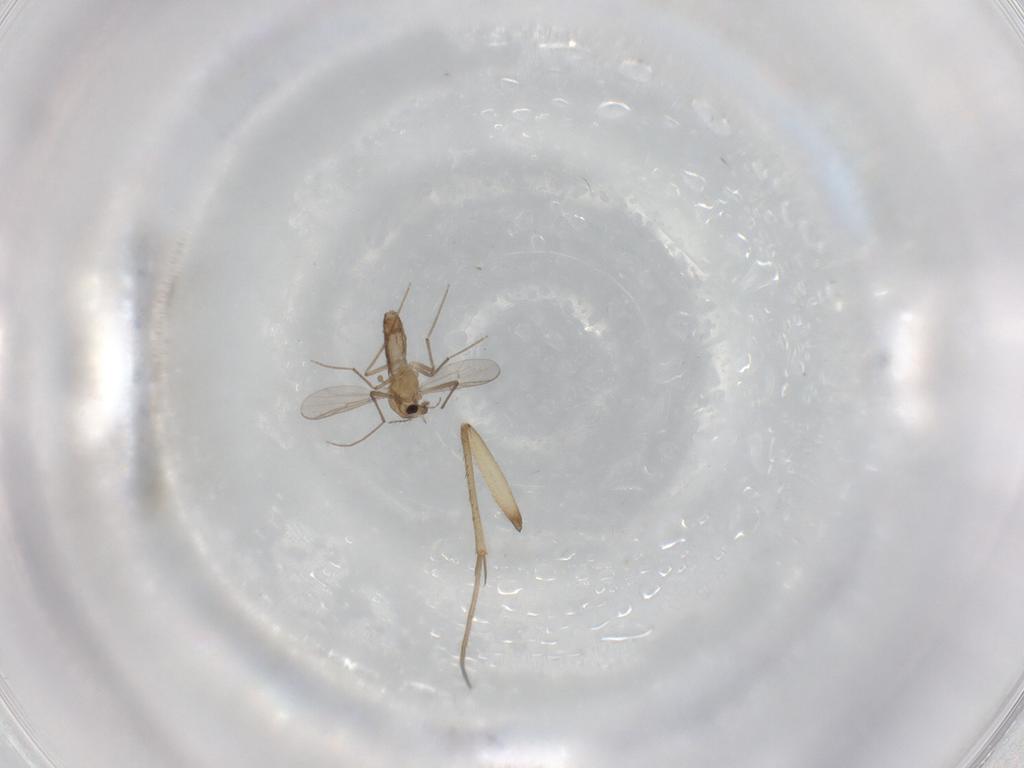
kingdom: Animalia
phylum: Arthropoda
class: Insecta
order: Diptera
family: Chironomidae
